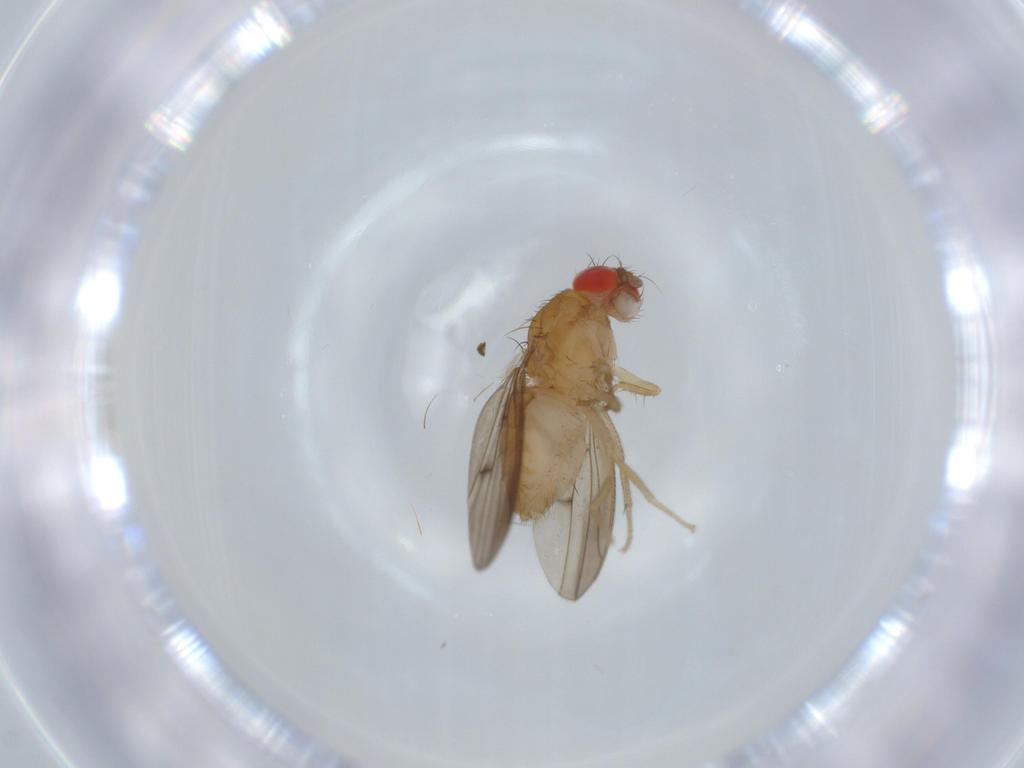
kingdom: Animalia
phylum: Arthropoda
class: Insecta
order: Diptera
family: Drosophilidae
